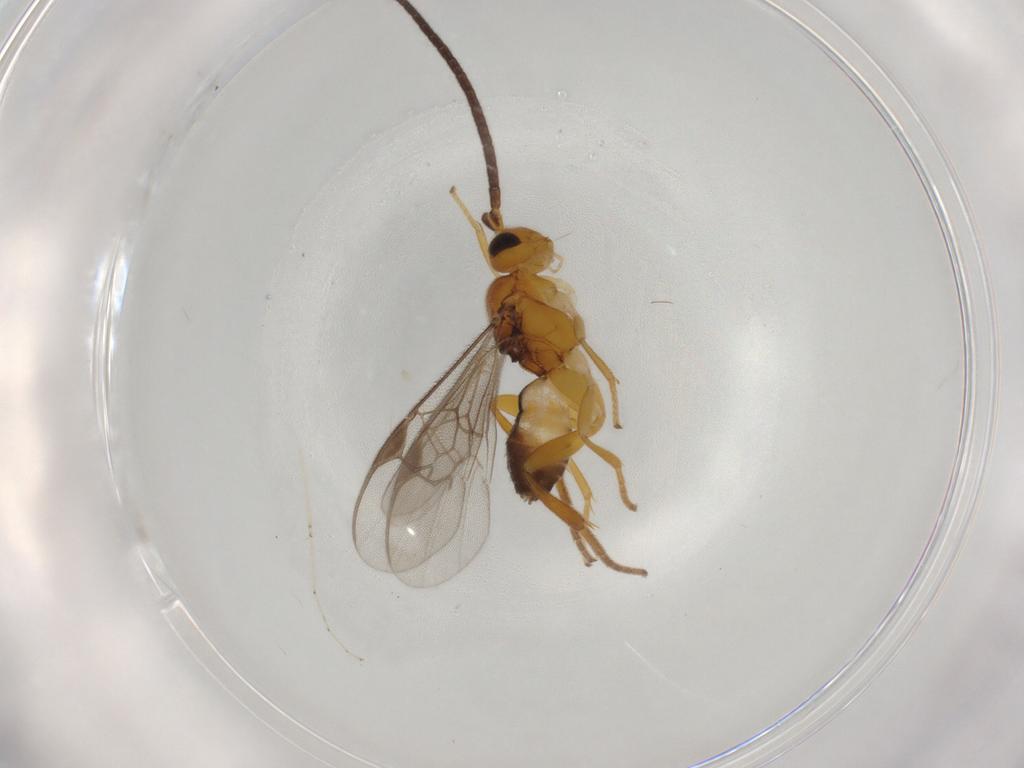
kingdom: Animalia
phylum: Arthropoda
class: Insecta
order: Hymenoptera
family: Braconidae
